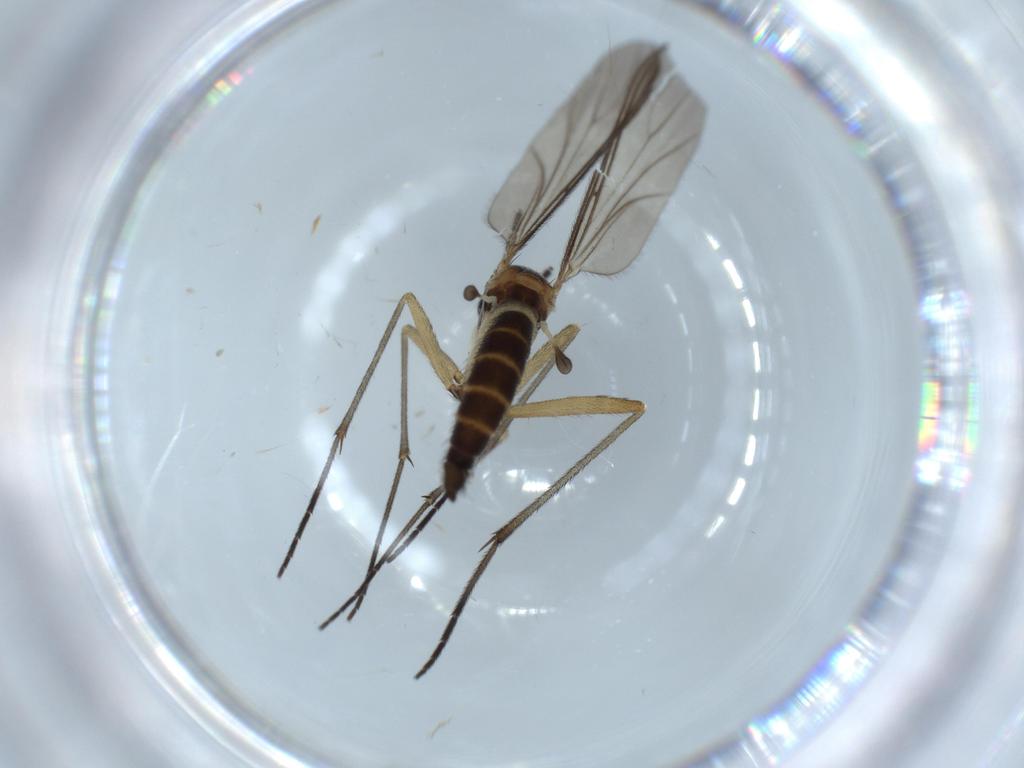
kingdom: Animalia
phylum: Arthropoda
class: Insecta
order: Diptera
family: Sciaridae
